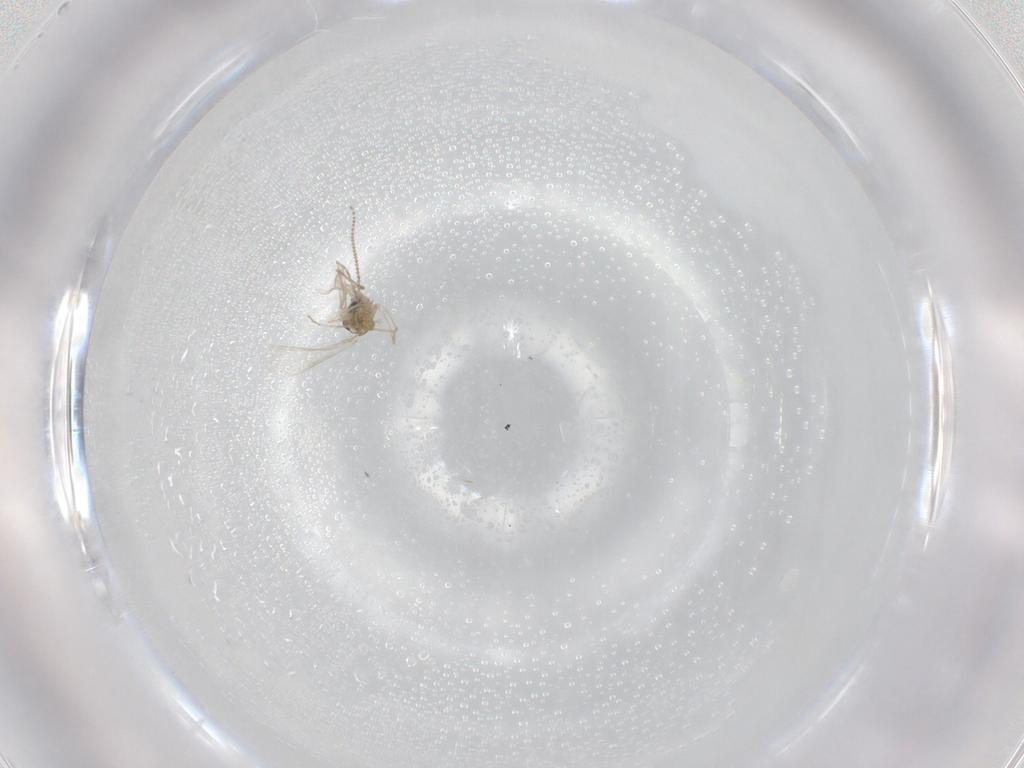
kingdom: Animalia
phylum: Arthropoda
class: Insecta
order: Diptera
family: Cecidomyiidae
